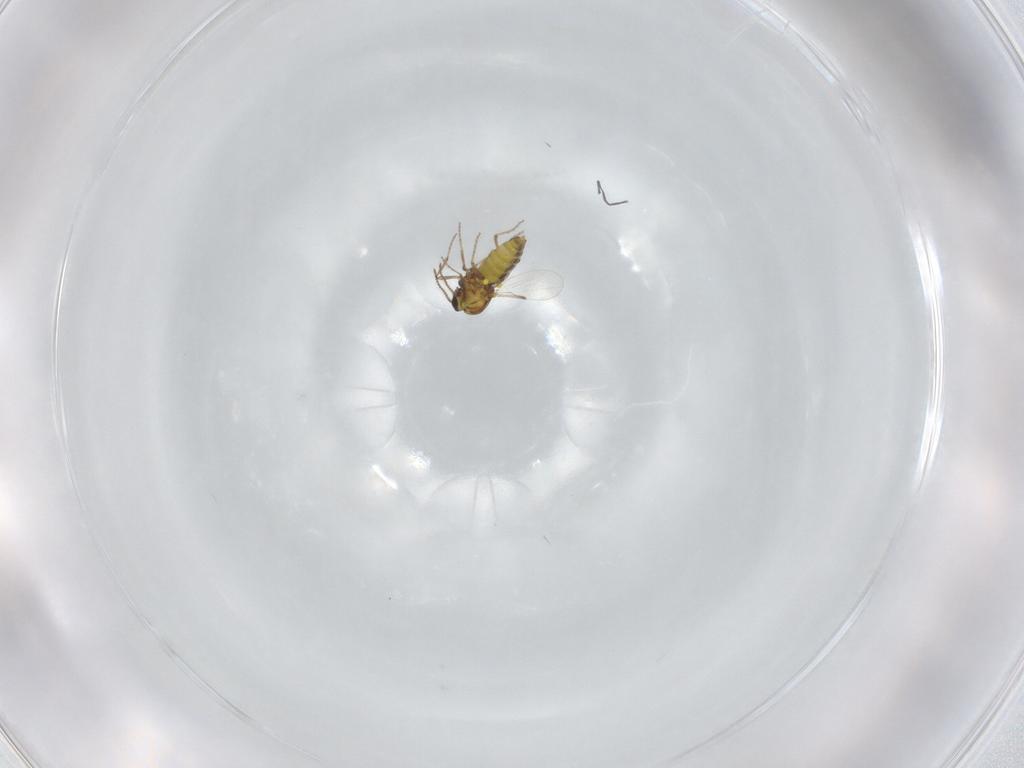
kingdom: Animalia
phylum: Arthropoda
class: Insecta
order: Diptera
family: Ceratopogonidae
